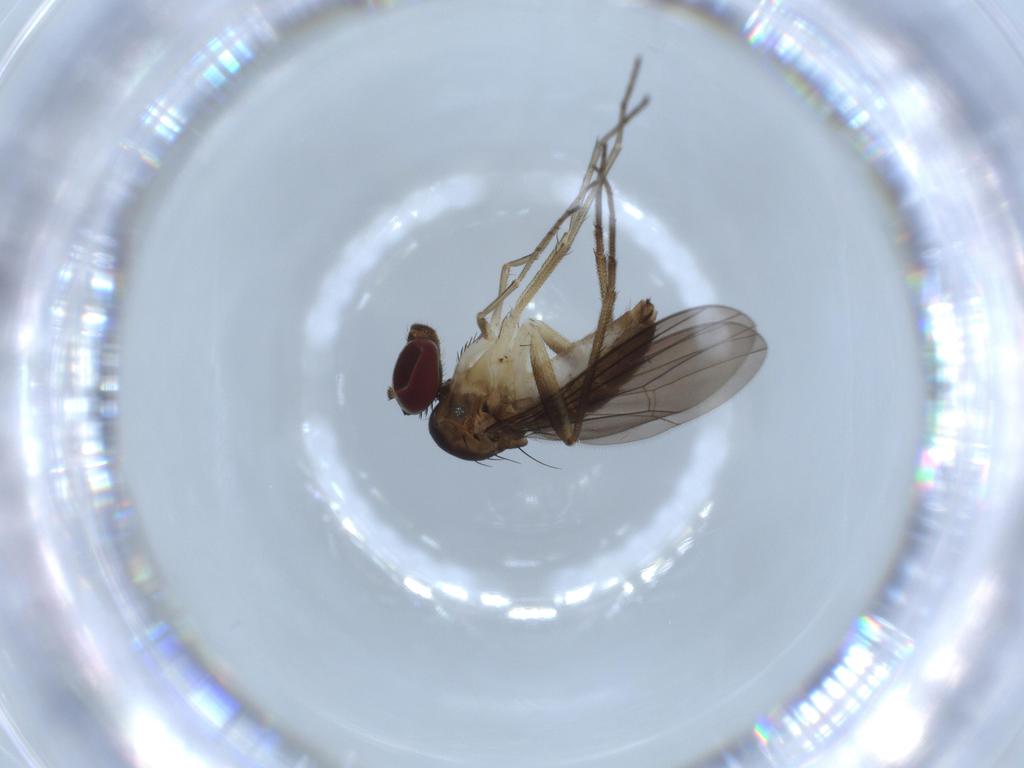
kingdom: Animalia
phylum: Arthropoda
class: Insecta
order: Diptera
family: Dolichopodidae
